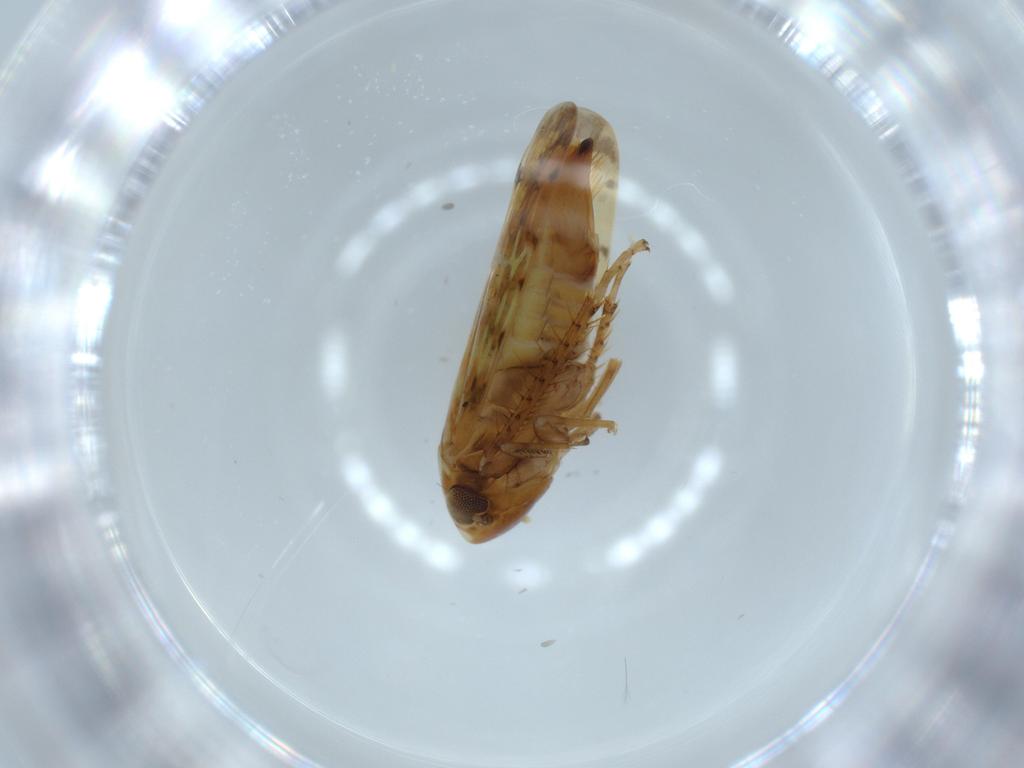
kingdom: Animalia
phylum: Arthropoda
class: Insecta
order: Hemiptera
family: Cicadellidae
